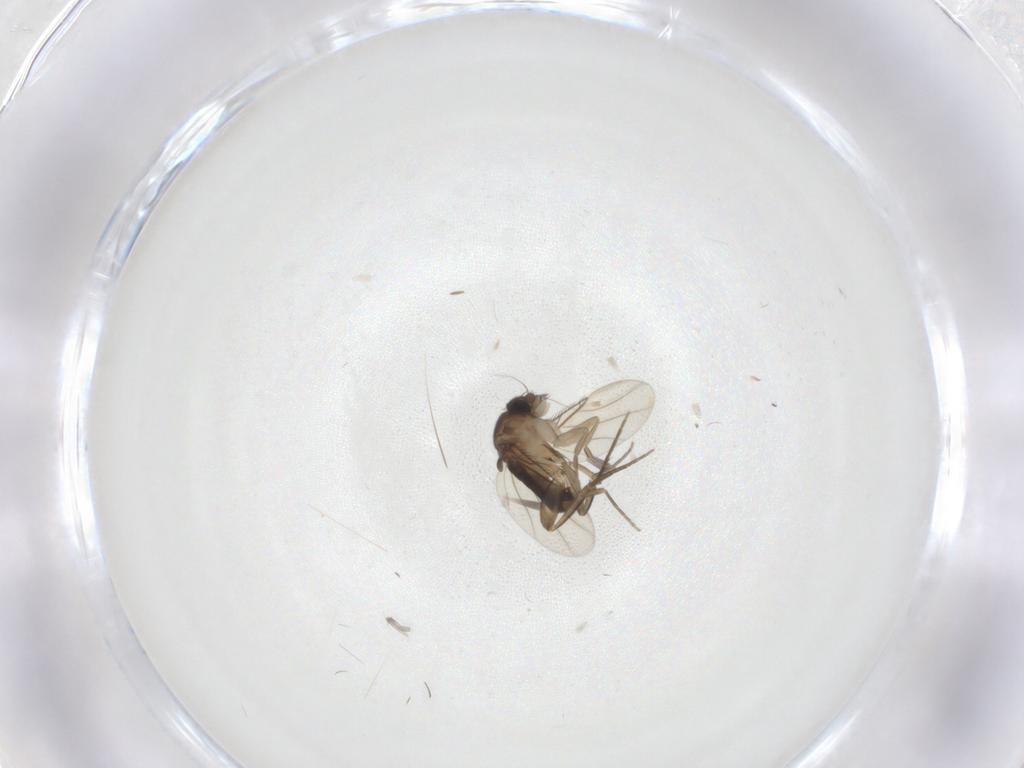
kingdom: Animalia
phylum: Arthropoda
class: Insecta
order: Diptera
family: Phoridae
